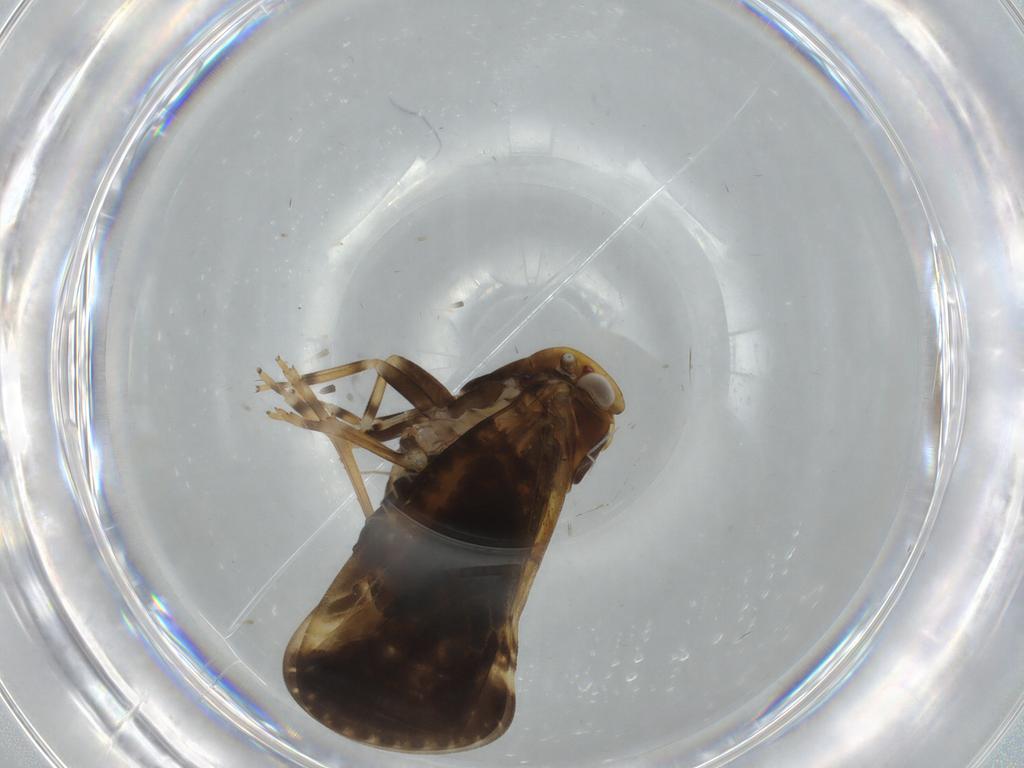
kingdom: Animalia
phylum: Arthropoda
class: Insecta
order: Hemiptera
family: Cixiidae
